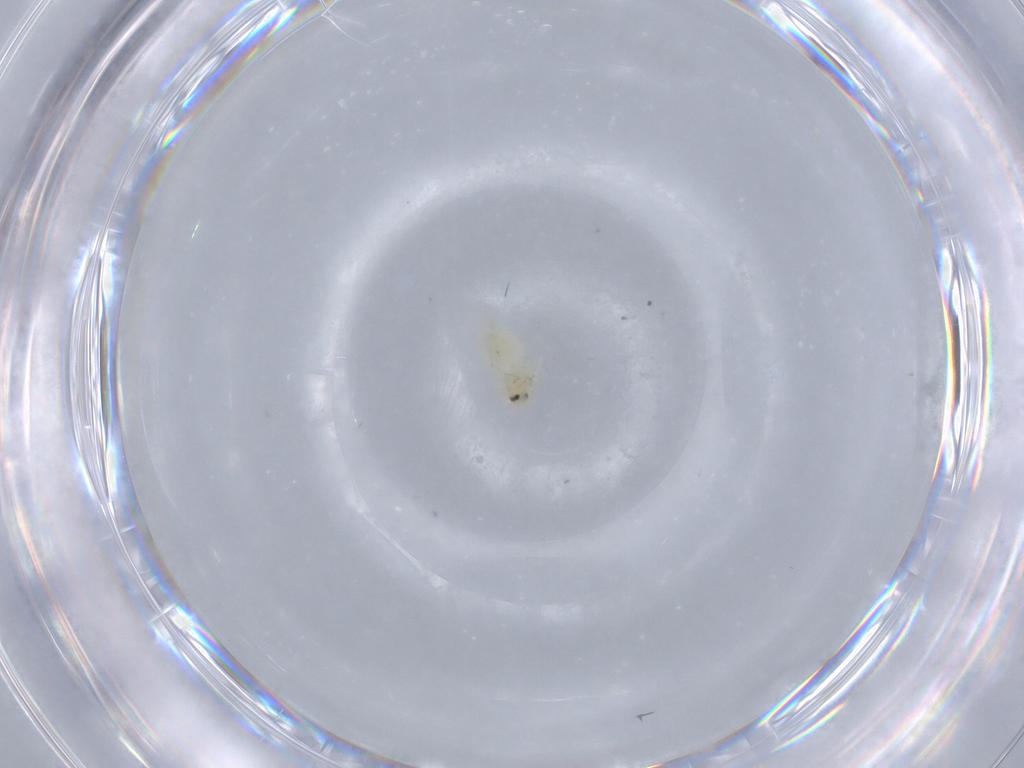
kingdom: Animalia
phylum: Arthropoda
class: Insecta
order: Hemiptera
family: Aleyrodidae
